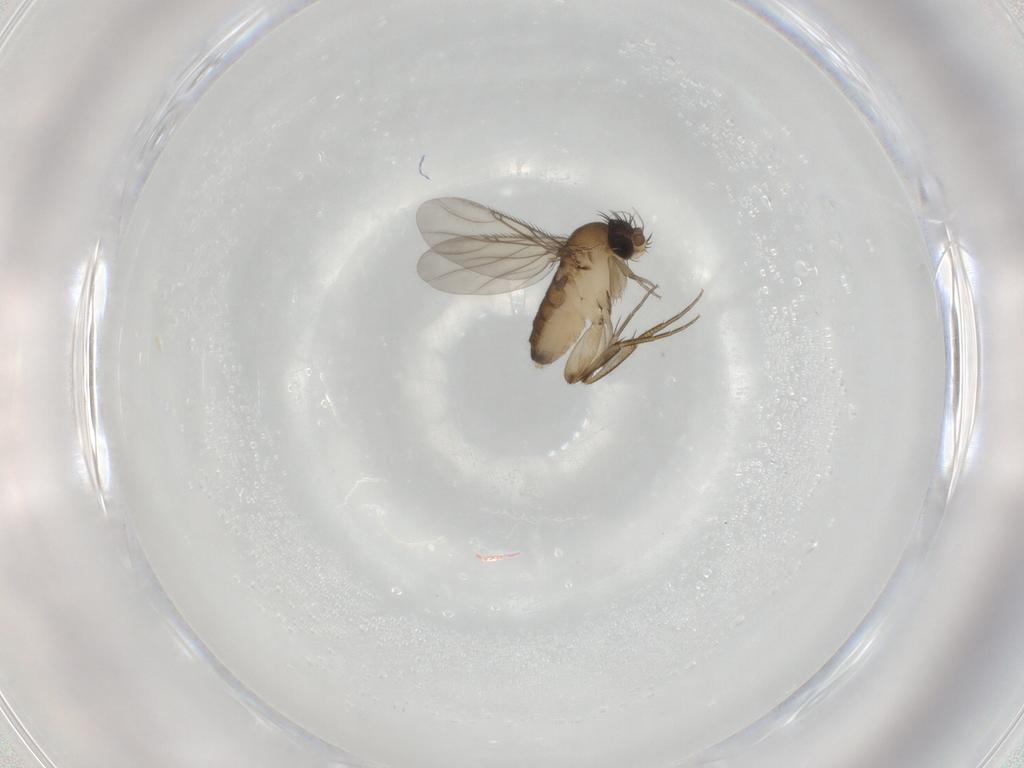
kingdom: Animalia
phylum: Arthropoda
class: Insecta
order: Diptera
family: Phoridae
